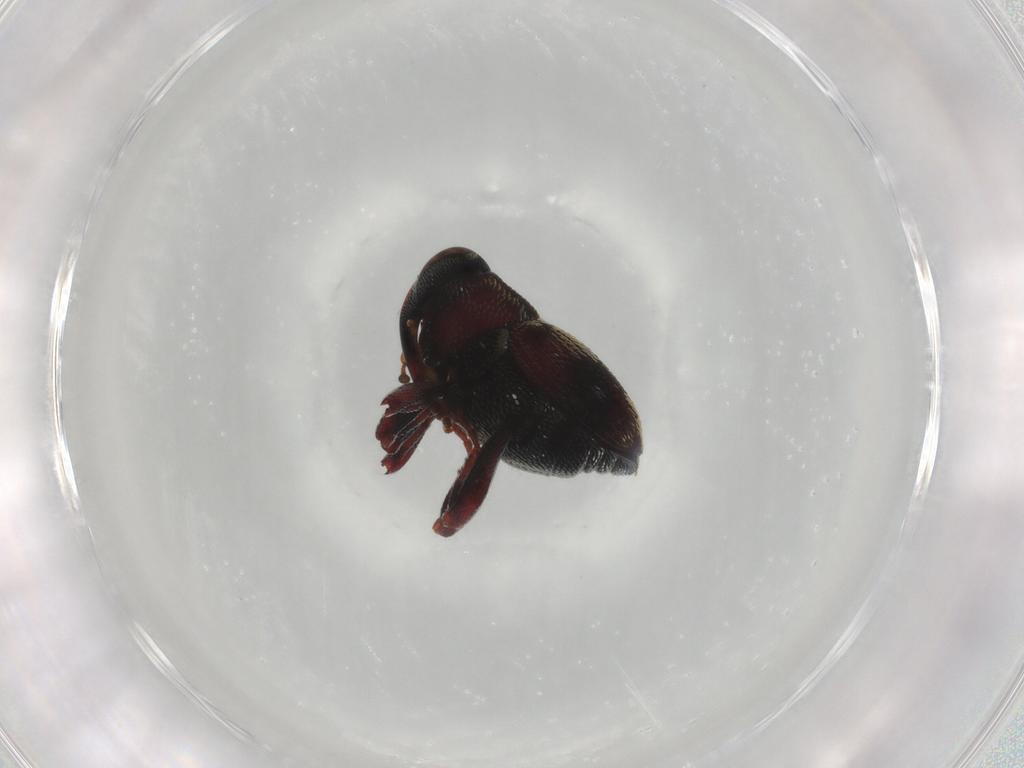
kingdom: Animalia
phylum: Arthropoda
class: Insecta
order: Coleoptera
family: Curculionidae
